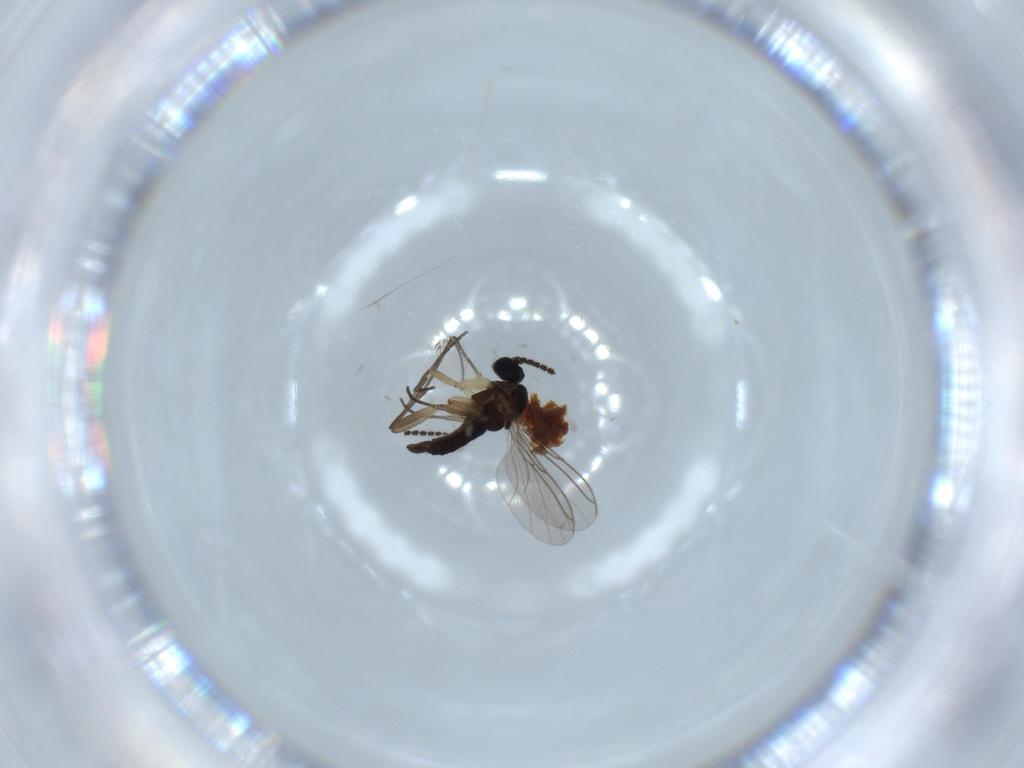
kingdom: Animalia
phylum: Arthropoda
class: Insecta
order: Diptera
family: Sciaridae
